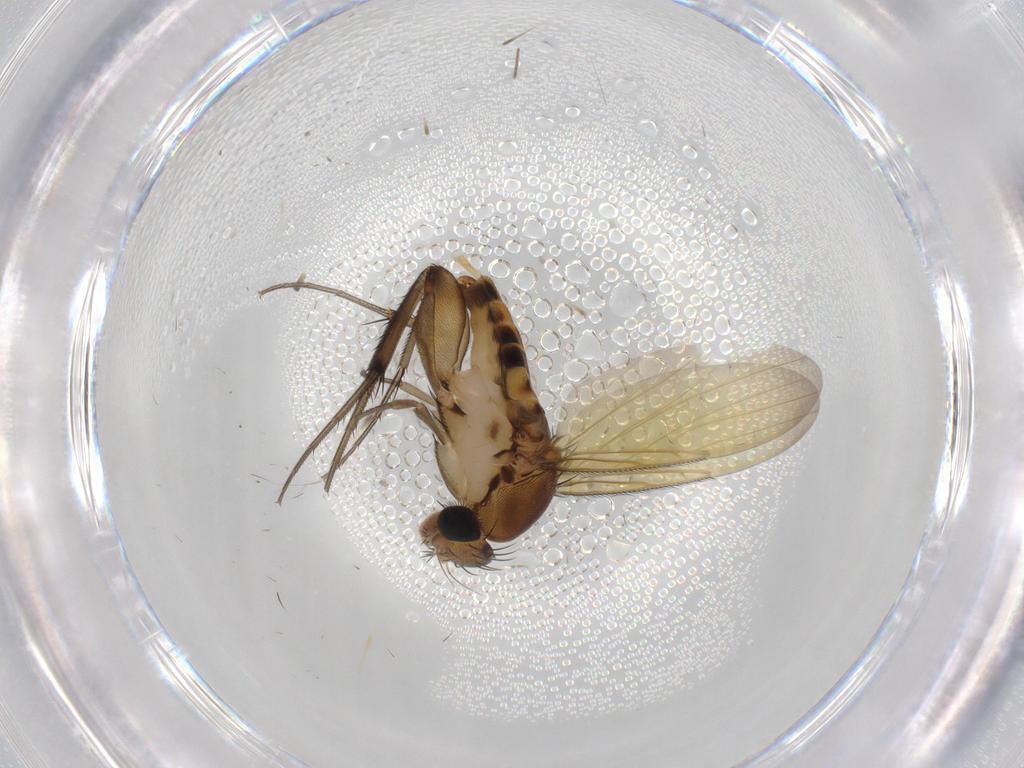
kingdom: Animalia
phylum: Arthropoda
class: Insecta
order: Diptera
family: Chironomidae
